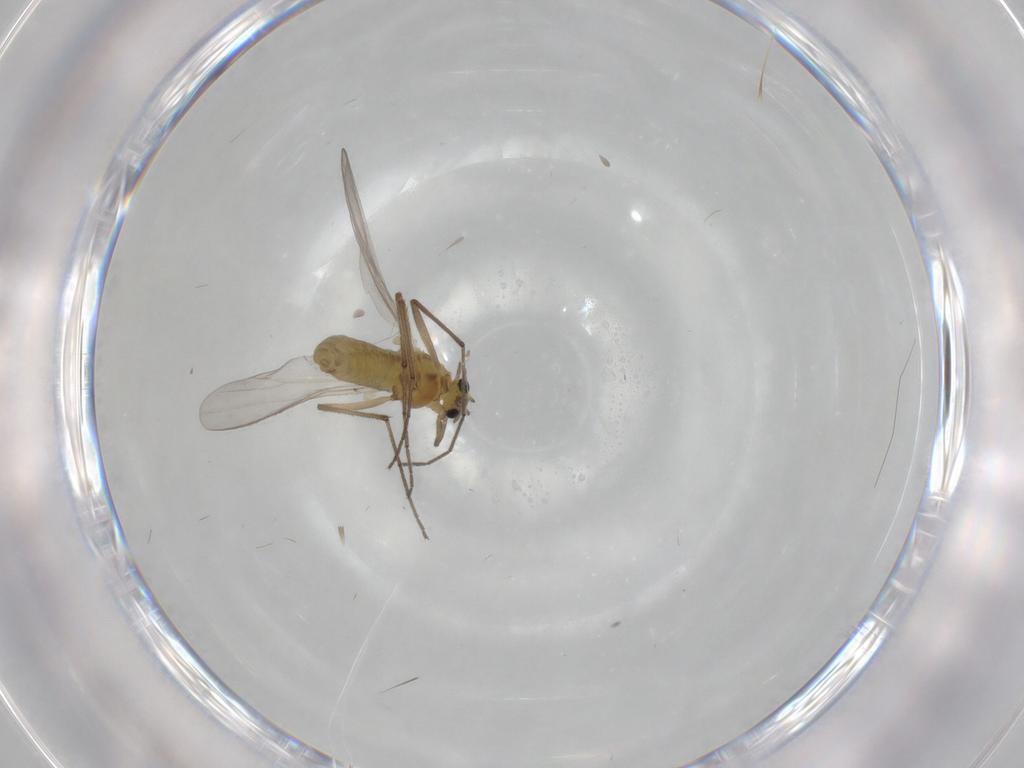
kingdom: Animalia
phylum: Arthropoda
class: Insecta
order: Diptera
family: Chironomidae
